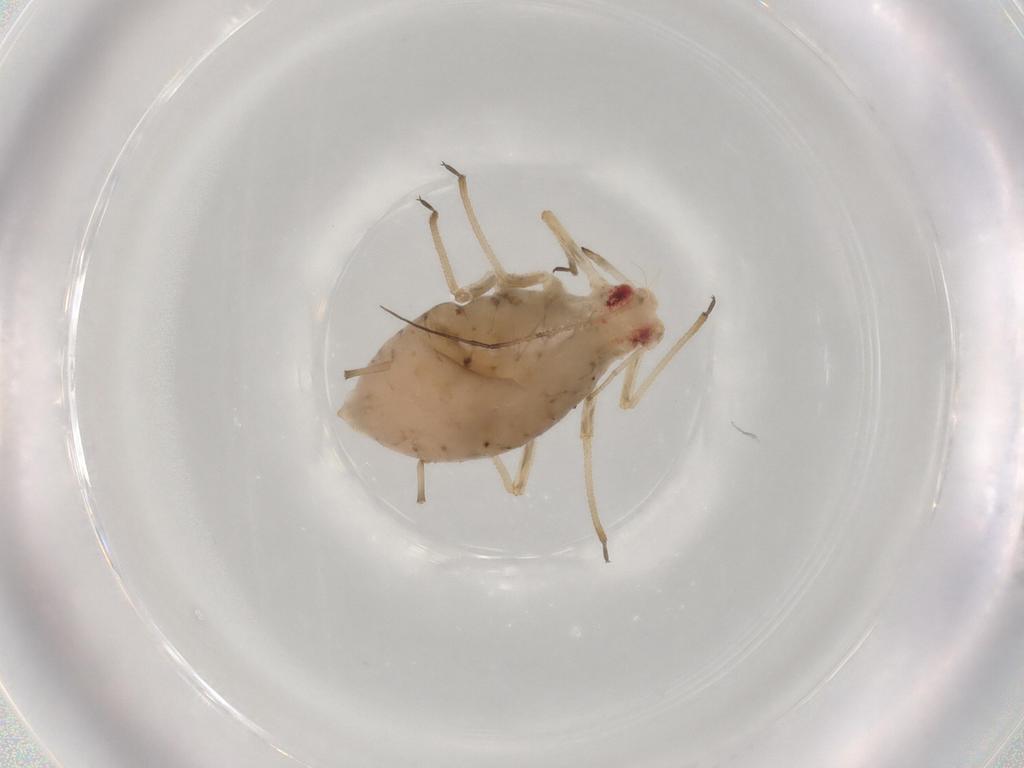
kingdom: Animalia
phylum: Arthropoda
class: Insecta
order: Hemiptera
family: Aphididae
